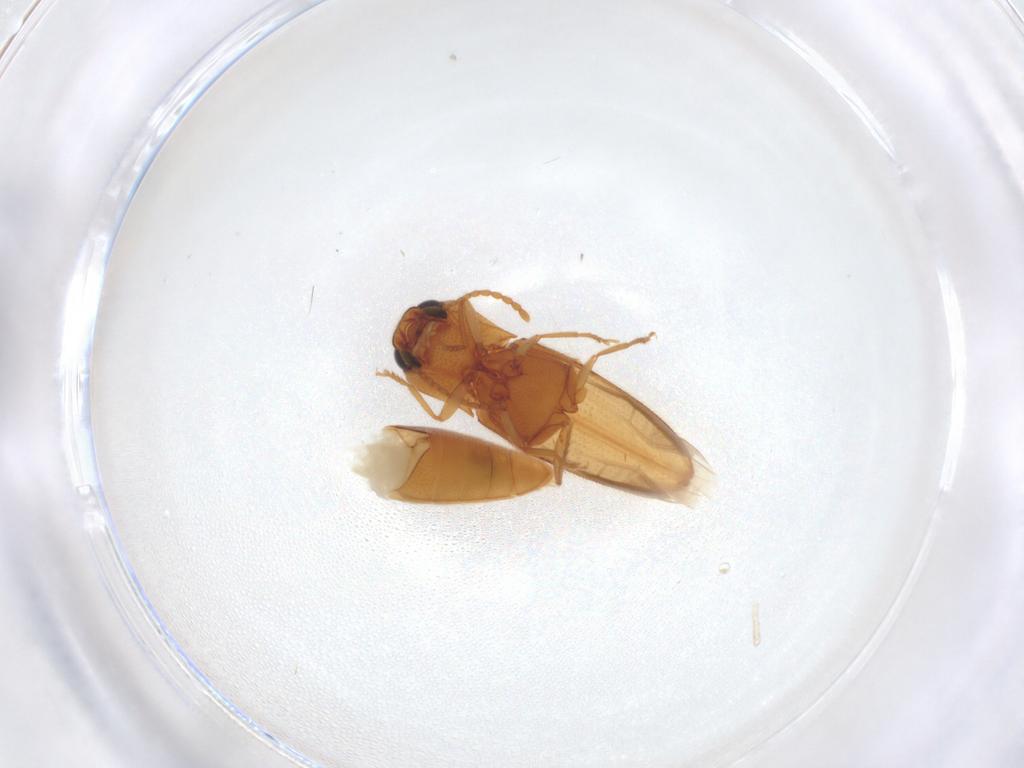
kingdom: Animalia
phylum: Arthropoda
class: Insecta
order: Coleoptera
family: Elateridae
